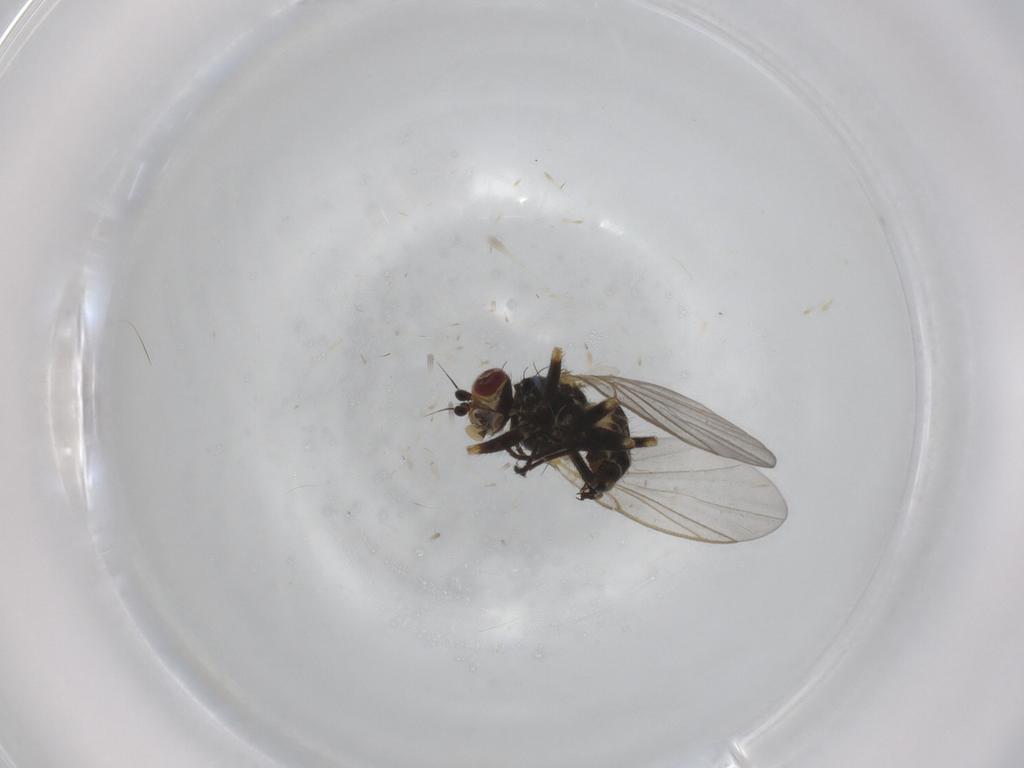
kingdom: Animalia
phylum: Arthropoda
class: Insecta
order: Diptera
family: Agromyzidae
